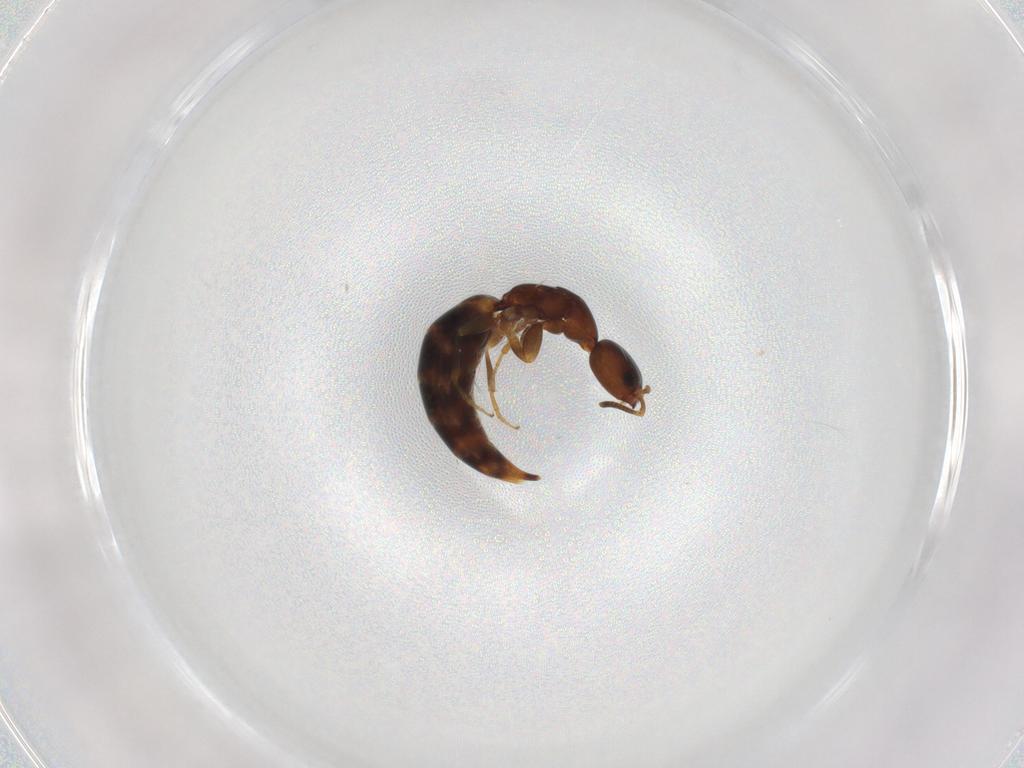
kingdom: Animalia
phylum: Arthropoda
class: Insecta
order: Hymenoptera
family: Bethylidae
